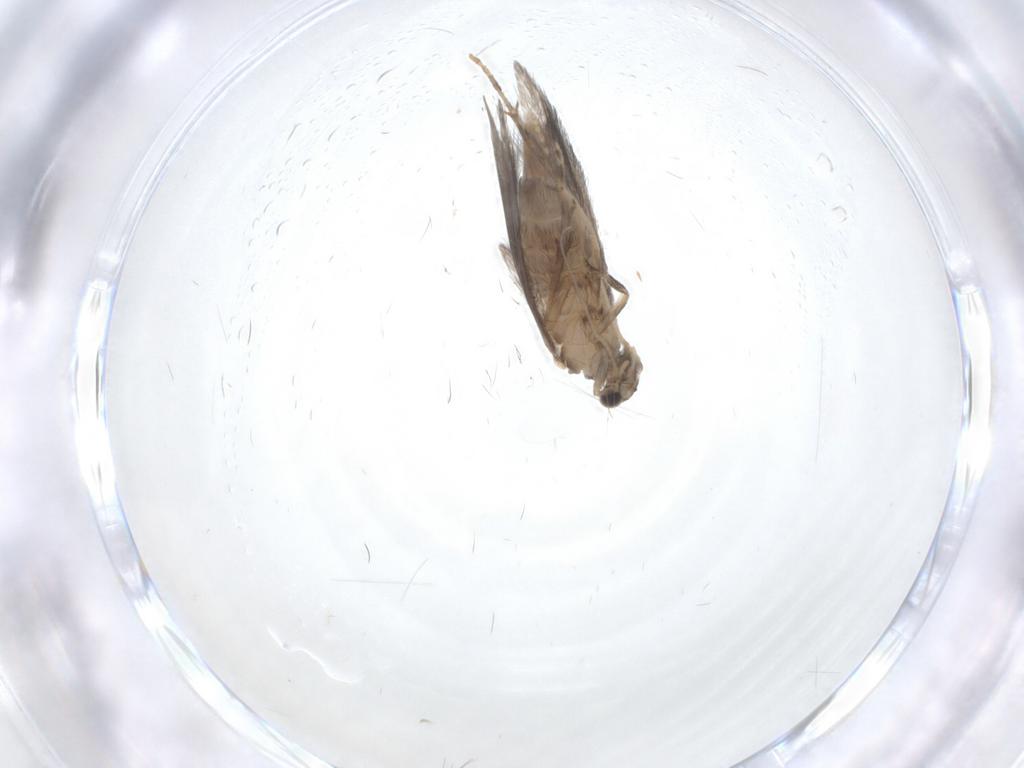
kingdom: Animalia
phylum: Arthropoda
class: Insecta
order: Trichoptera
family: Hydroptilidae
